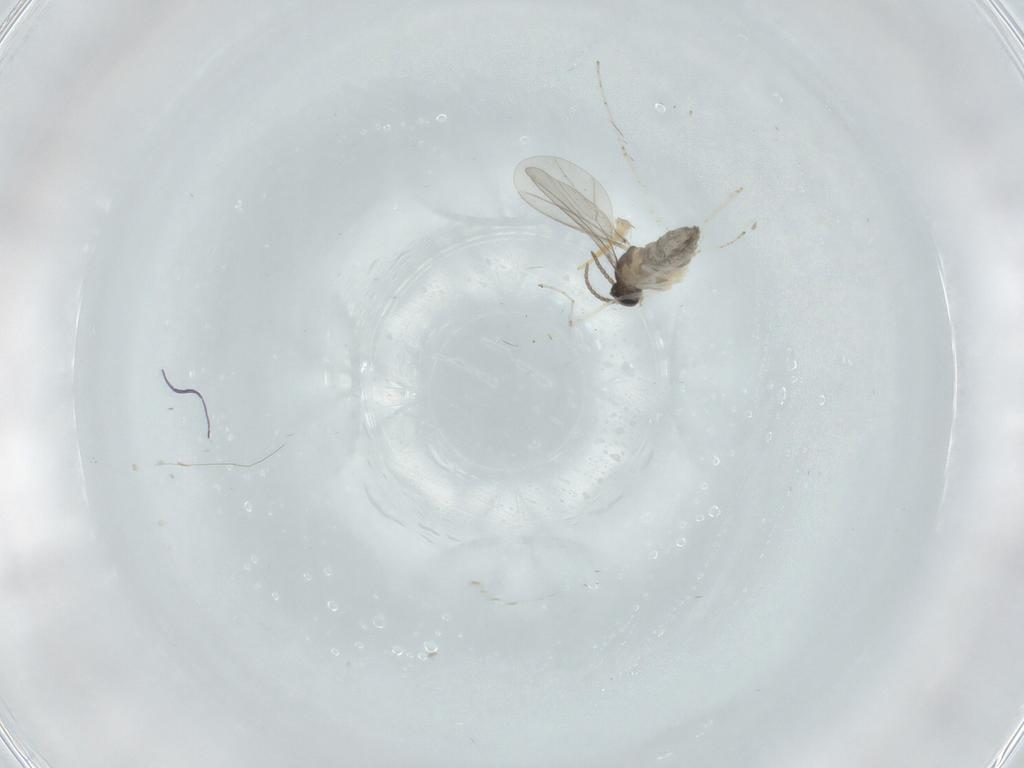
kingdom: Animalia
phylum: Arthropoda
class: Insecta
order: Diptera
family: Cecidomyiidae
